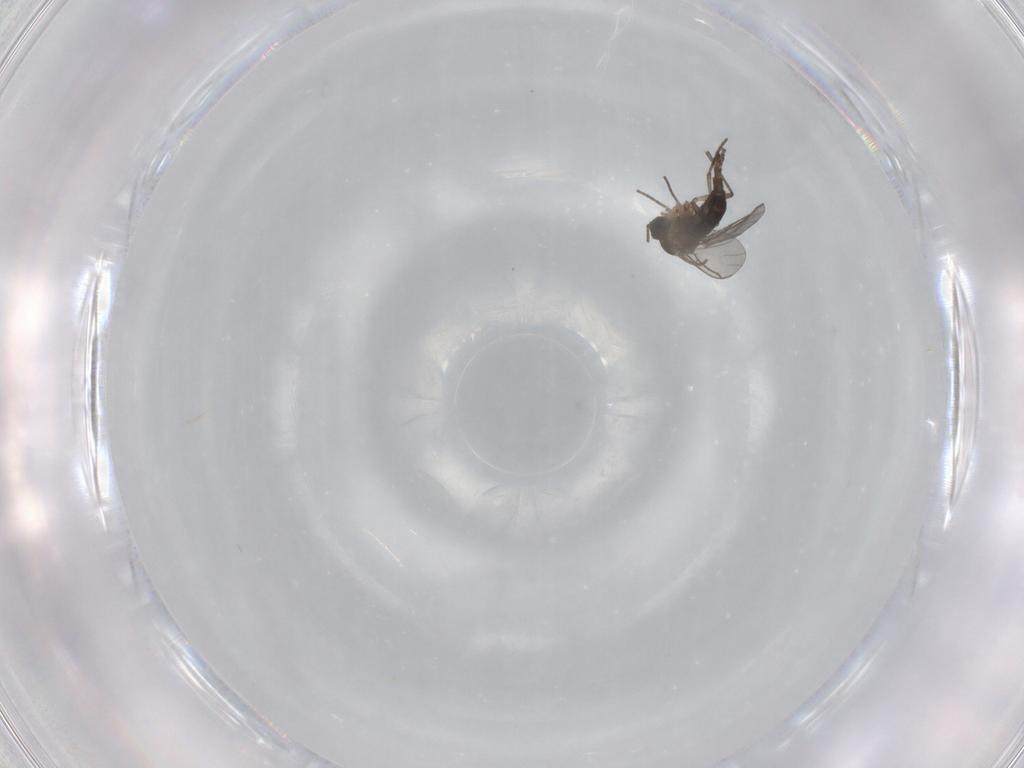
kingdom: Animalia
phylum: Arthropoda
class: Insecta
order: Diptera
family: Sciaridae
